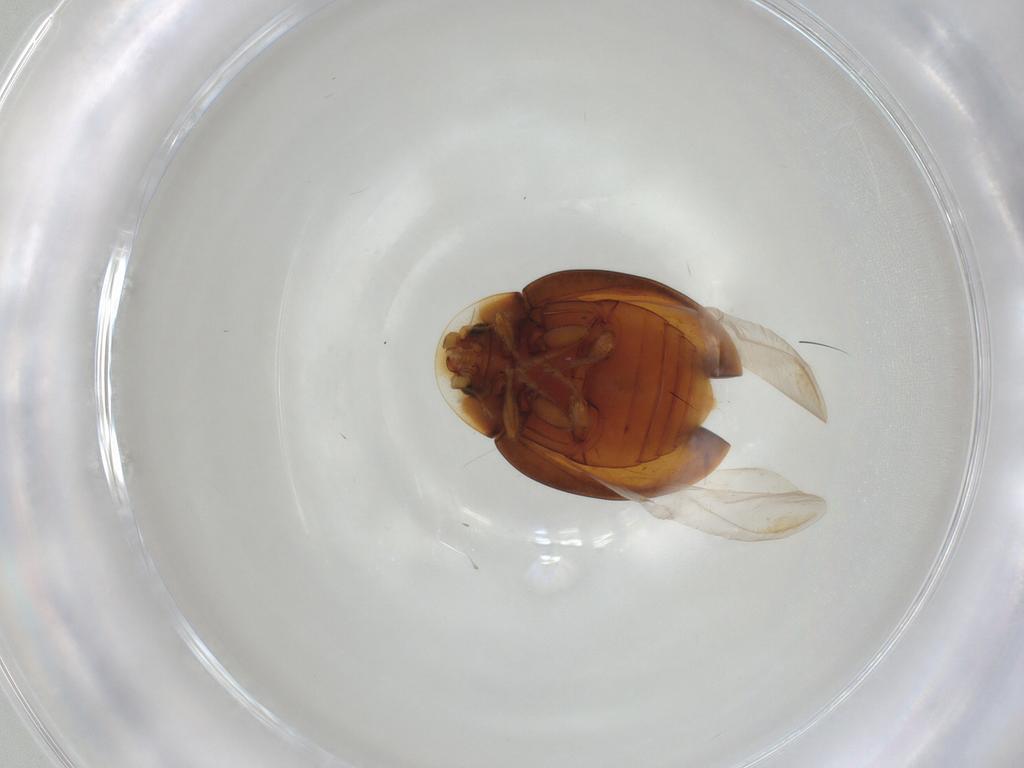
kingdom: Animalia
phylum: Arthropoda
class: Insecta
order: Coleoptera
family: Coccinellidae
